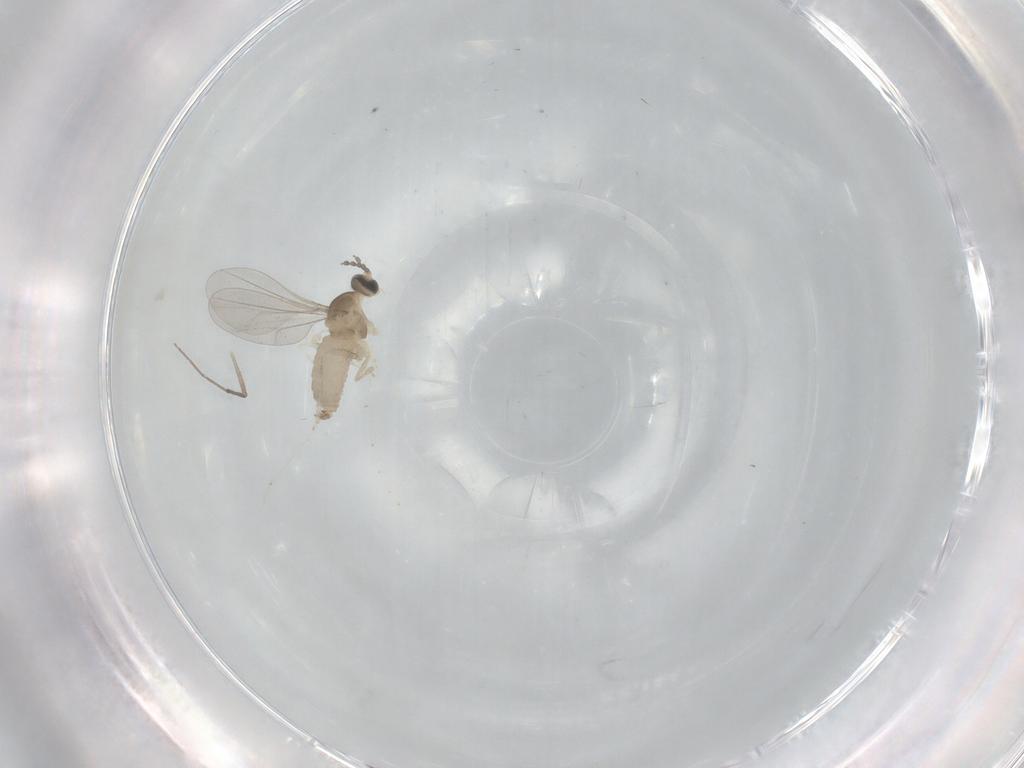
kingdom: Animalia
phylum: Arthropoda
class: Insecta
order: Diptera
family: Cecidomyiidae
